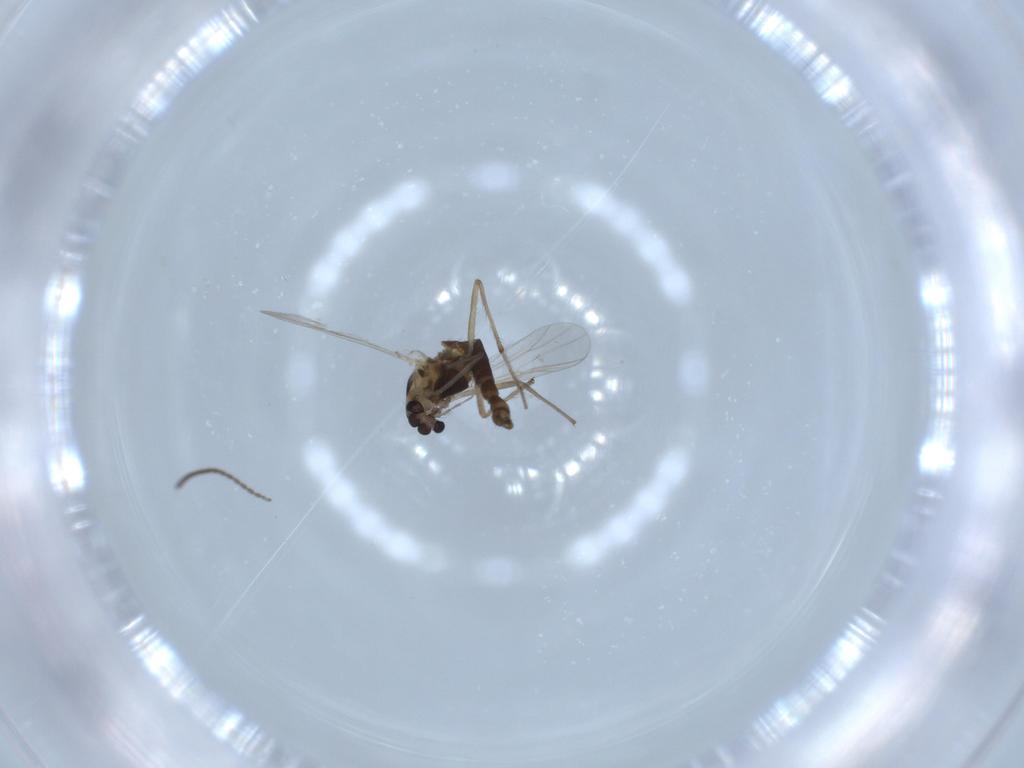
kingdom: Animalia
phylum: Arthropoda
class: Insecta
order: Diptera
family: Chironomidae
